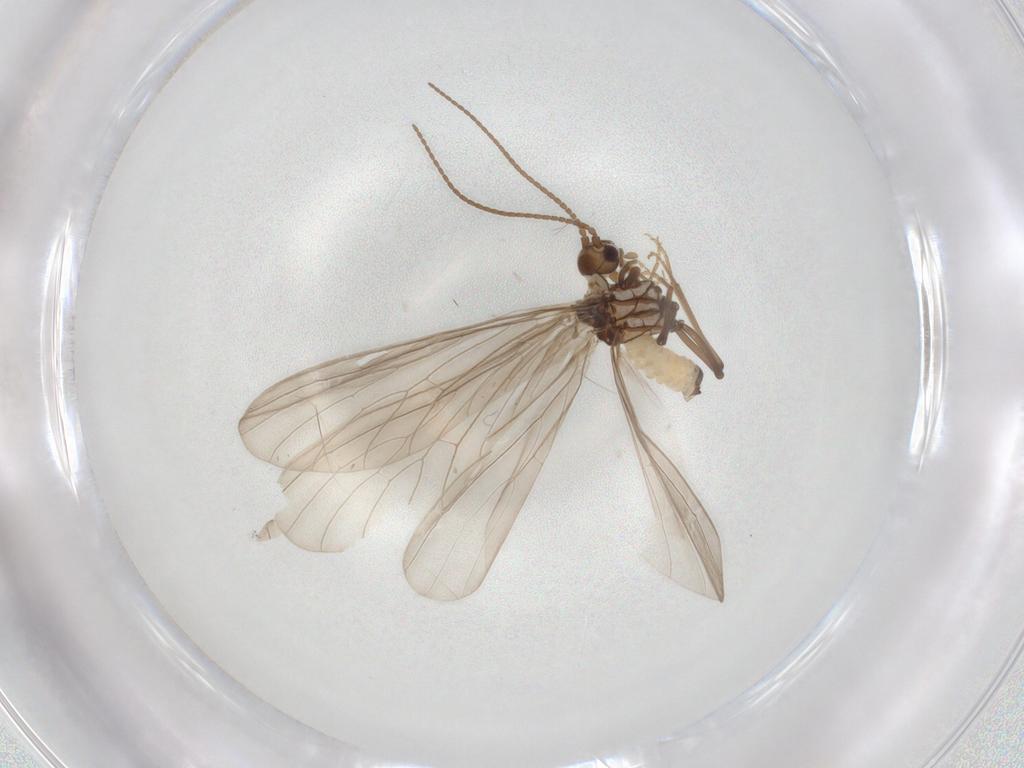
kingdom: Animalia
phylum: Arthropoda
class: Insecta
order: Neuroptera
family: Coniopterygidae
